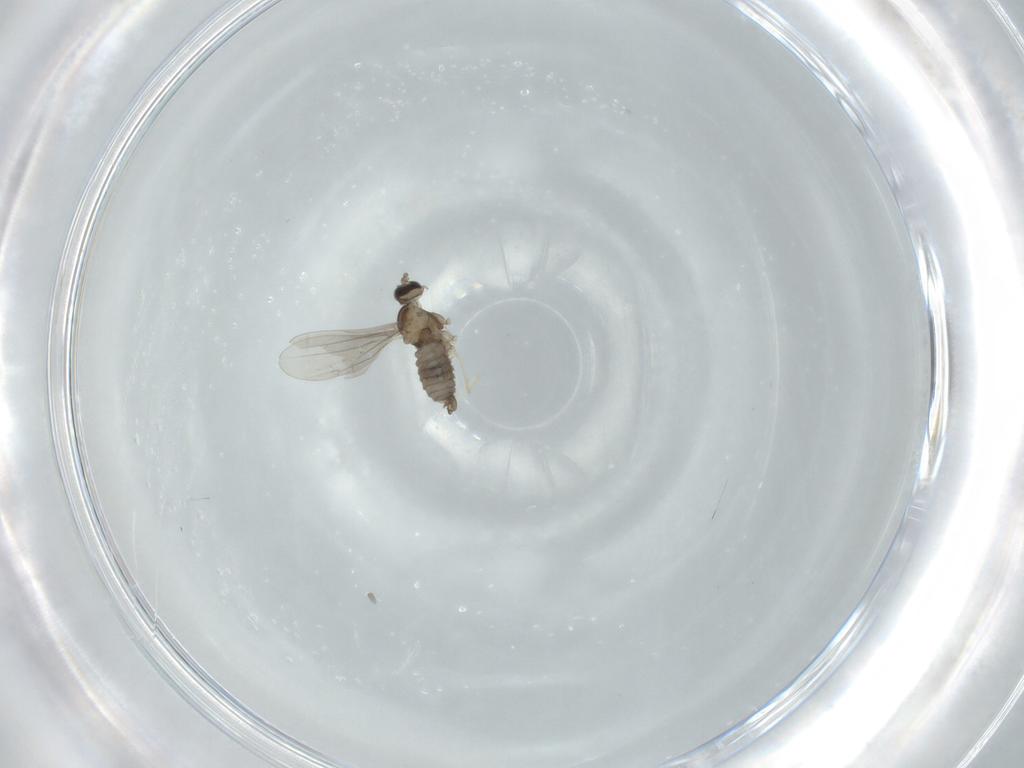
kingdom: Animalia
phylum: Arthropoda
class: Insecta
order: Diptera
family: Cecidomyiidae
